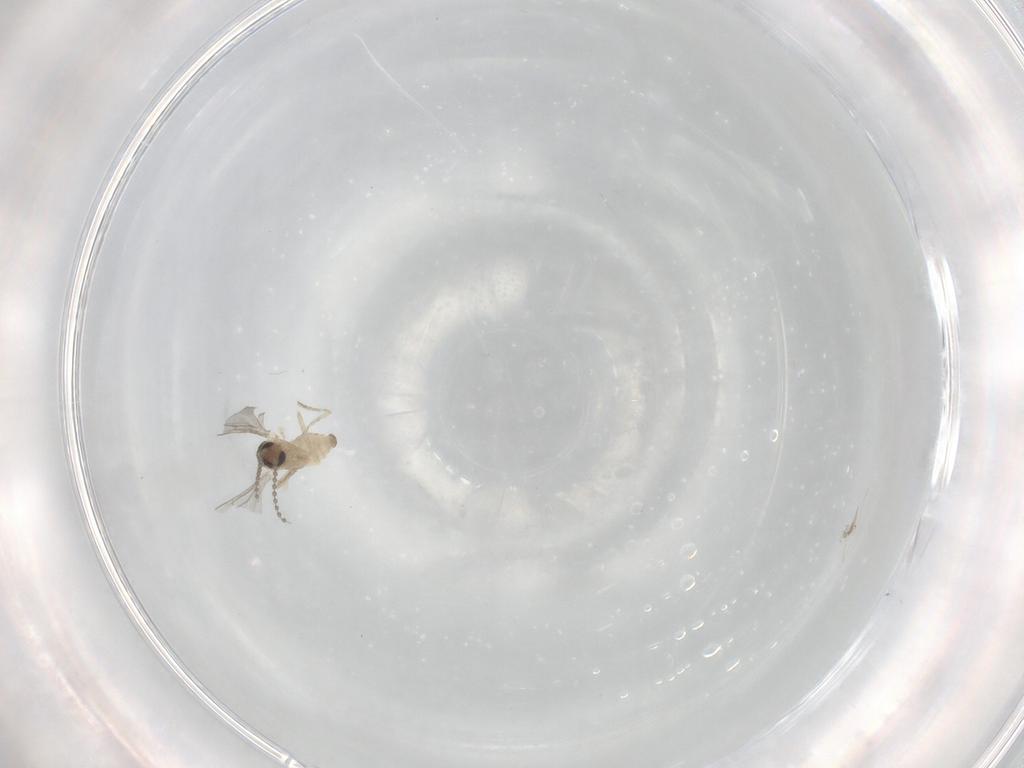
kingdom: Animalia
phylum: Arthropoda
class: Insecta
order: Diptera
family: Cecidomyiidae
